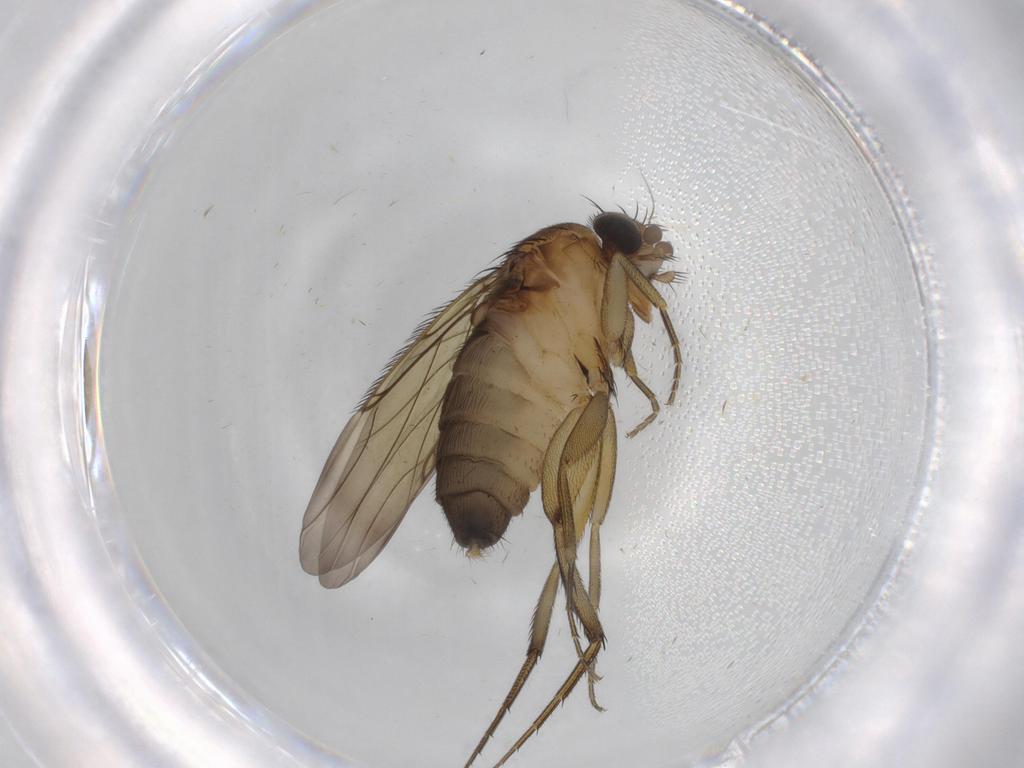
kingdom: Animalia
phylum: Arthropoda
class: Insecta
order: Diptera
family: Phoridae
